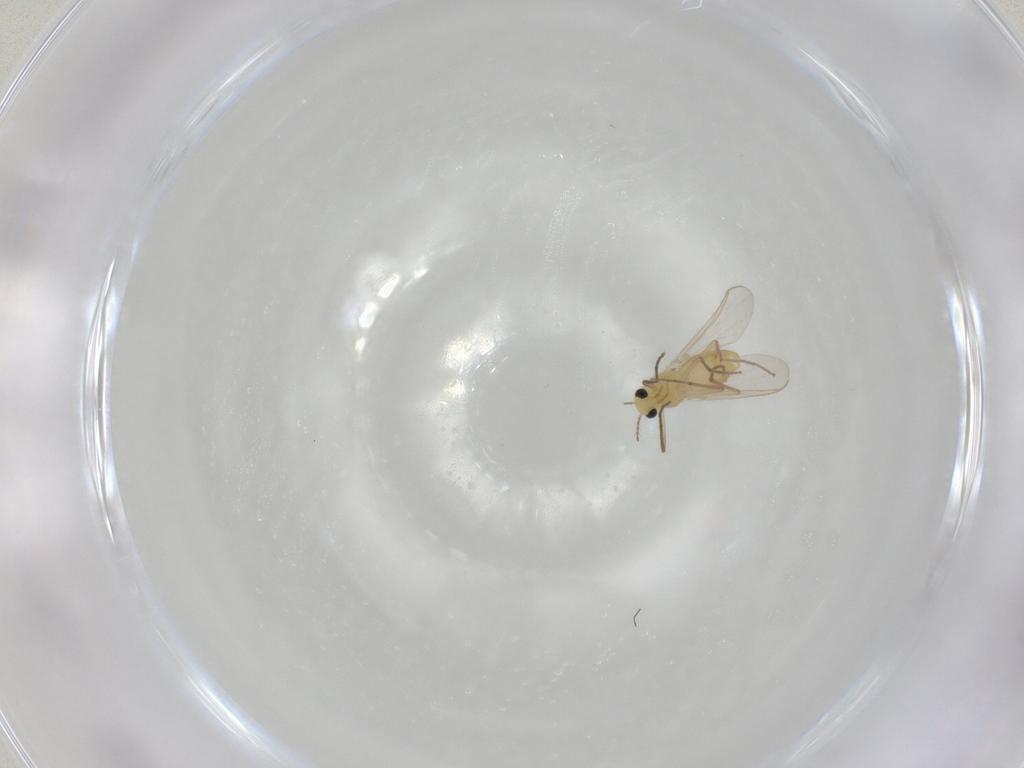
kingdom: Animalia
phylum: Arthropoda
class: Insecta
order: Diptera
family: Chironomidae
